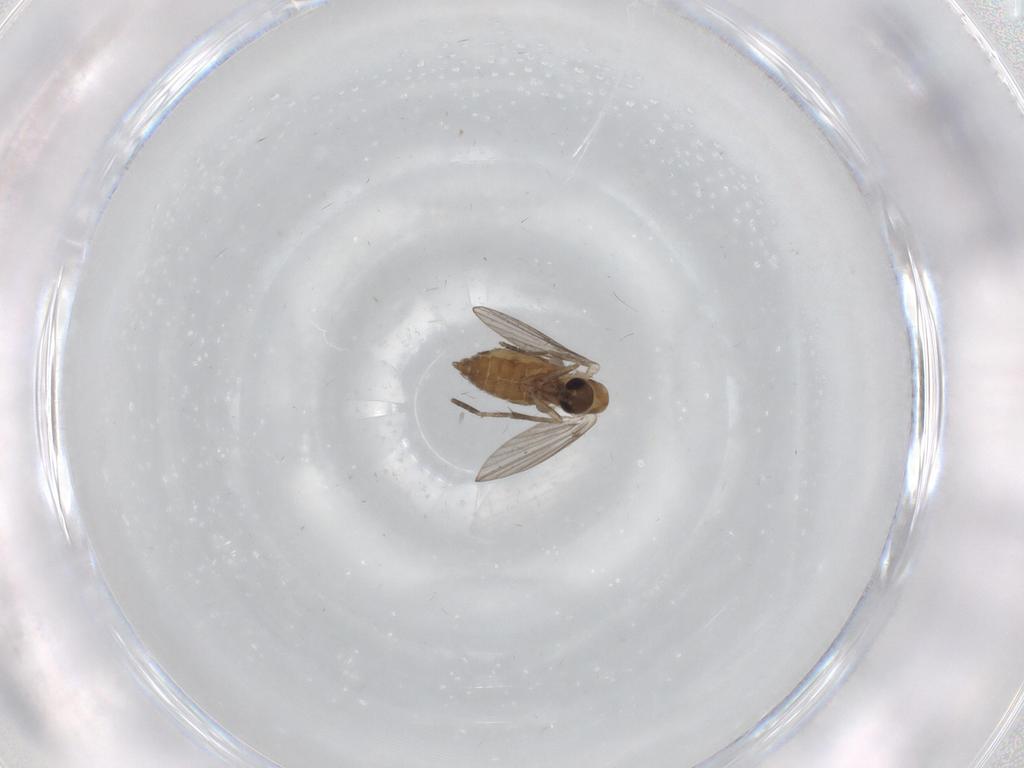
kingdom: Animalia
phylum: Arthropoda
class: Insecta
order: Diptera
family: Psychodidae
